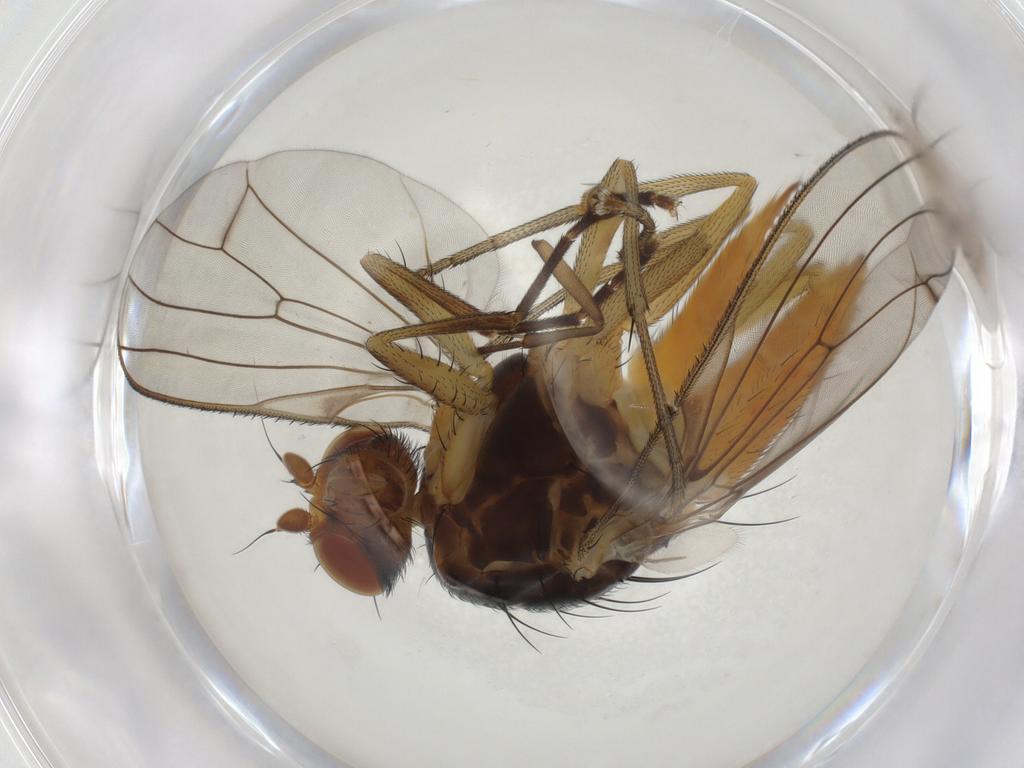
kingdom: Animalia
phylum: Arthropoda
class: Insecta
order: Diptera
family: Heleomyzidae
